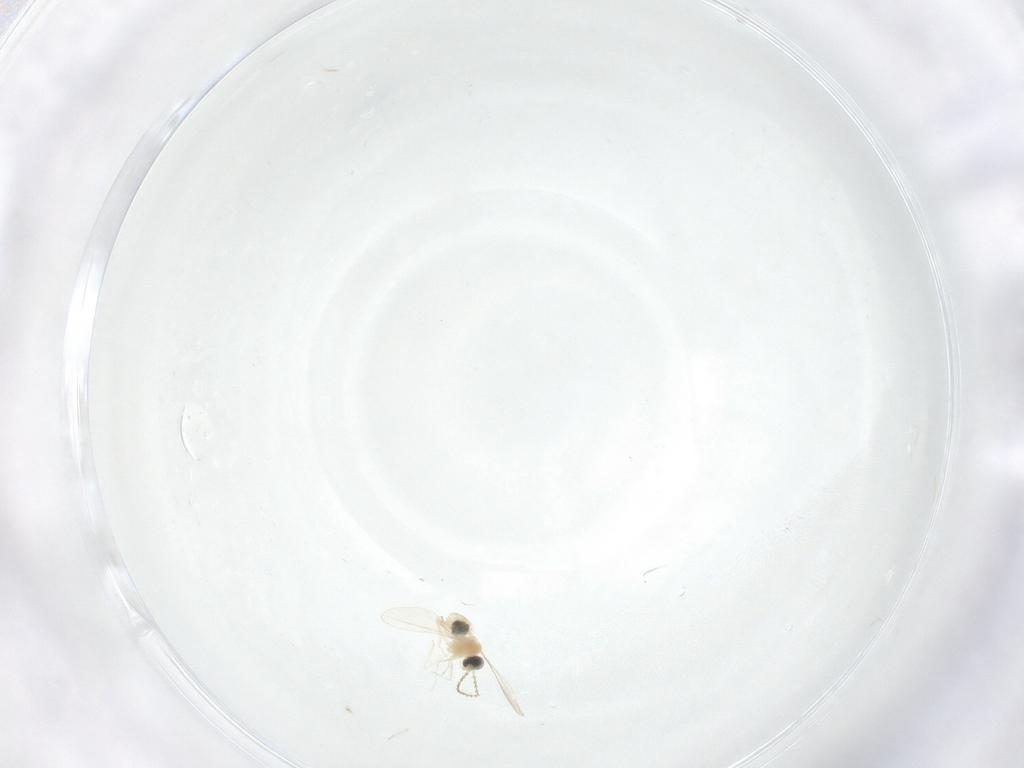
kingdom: Animalia
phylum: Arthropoda
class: Insecta
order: Diptera
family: Cecidomyiidae
